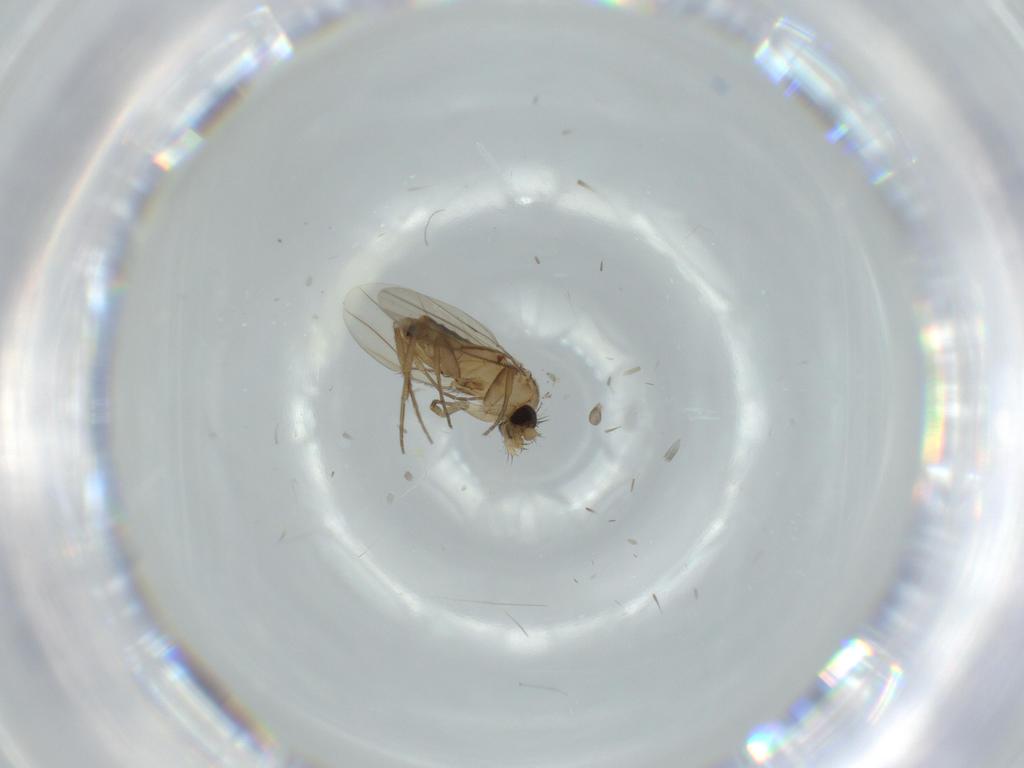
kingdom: Animalia
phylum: Arthropoda
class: Insecta
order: Diptera
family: Phoridae
